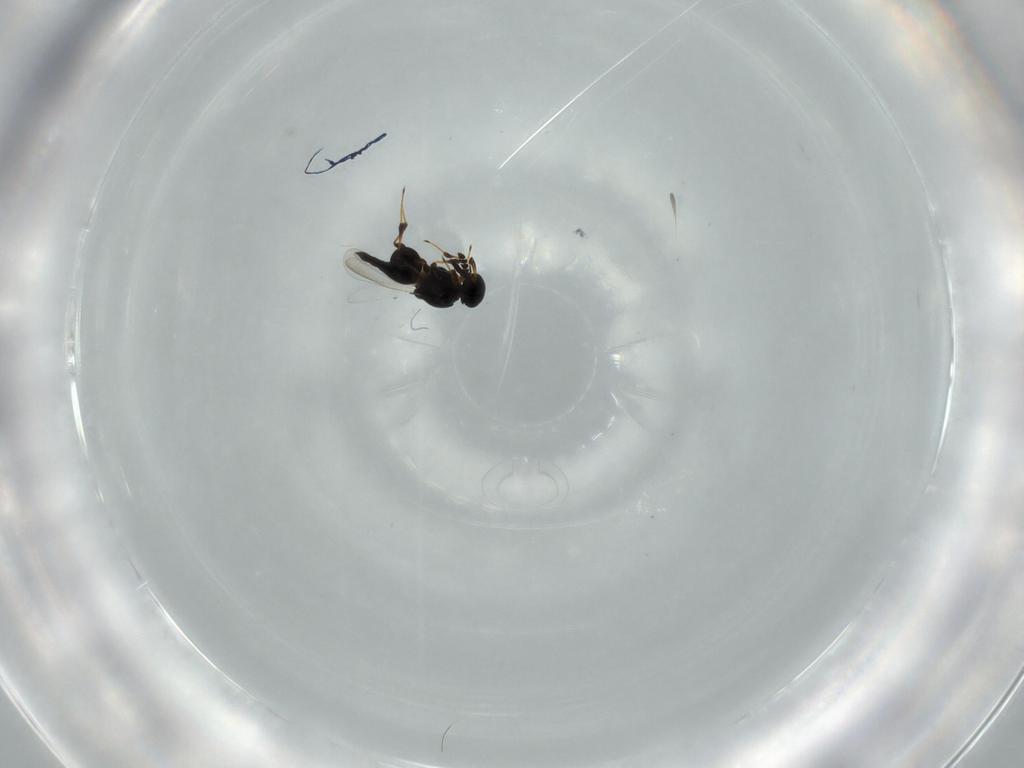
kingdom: Animalia
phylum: Arthropoda
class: Insecta
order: Hymenoptera
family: Platygastridae
